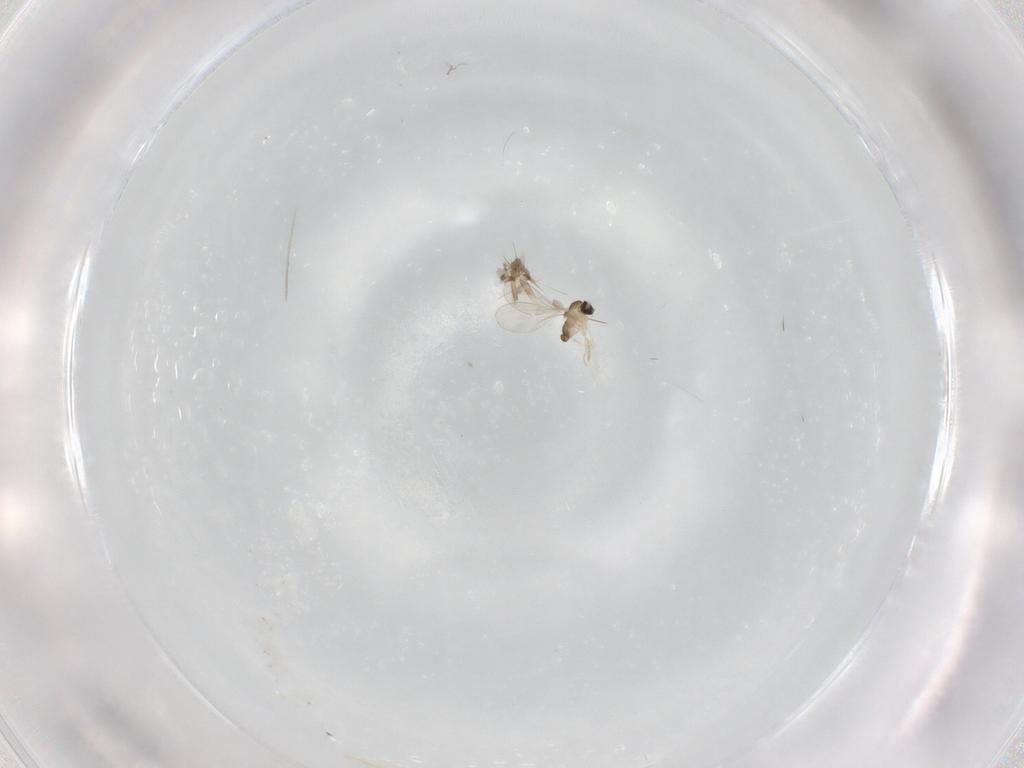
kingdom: Animalia
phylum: Arthropoda
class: Insecta
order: Diptera
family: Cecidomyiidae
